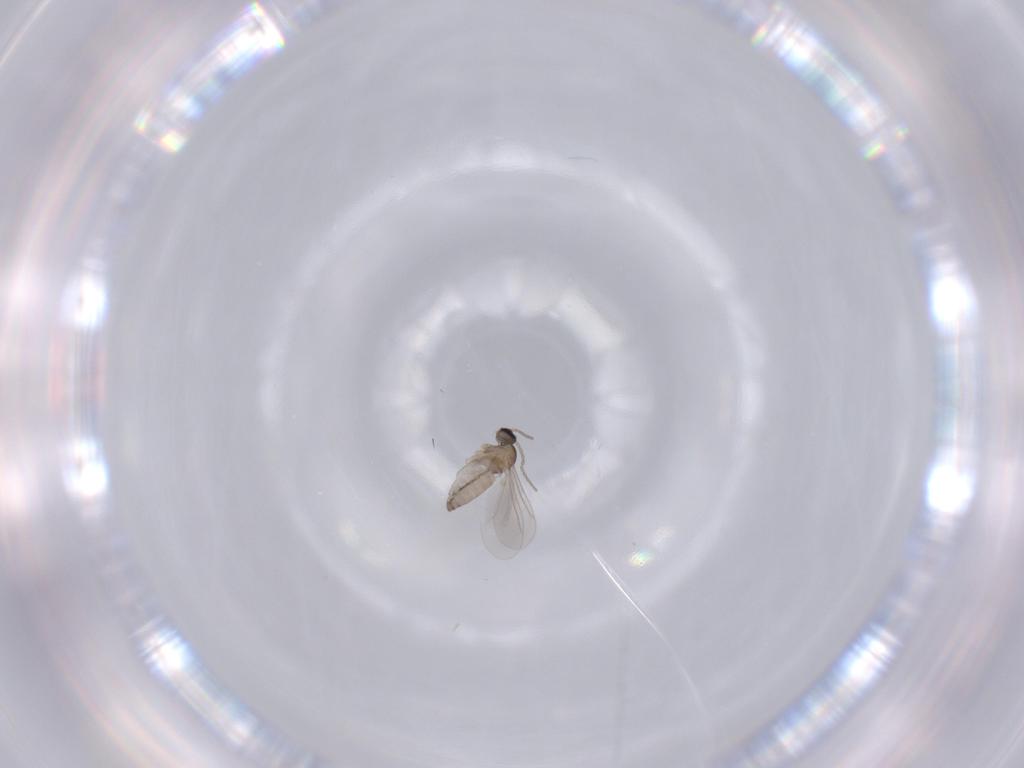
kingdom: Animalia
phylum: Arthropoda
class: Insecta
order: Diptera
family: Cecidomyiidae
